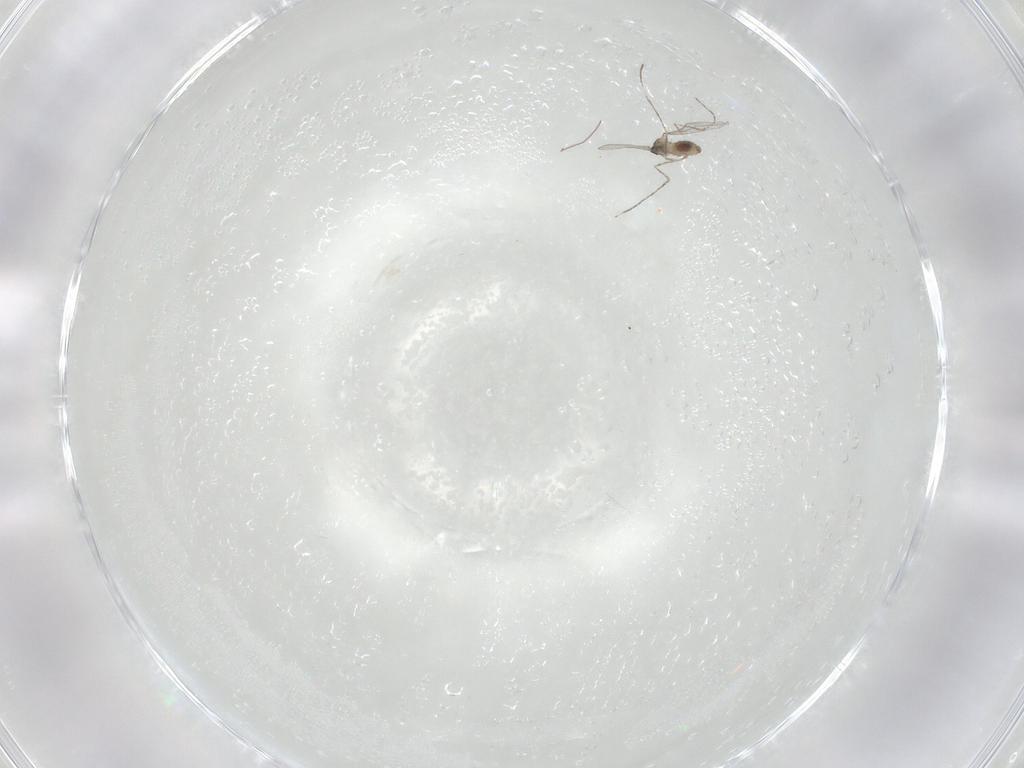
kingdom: Animalia
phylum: Arthropoda
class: Insecta
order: Diptera
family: Cecidomyiidae
